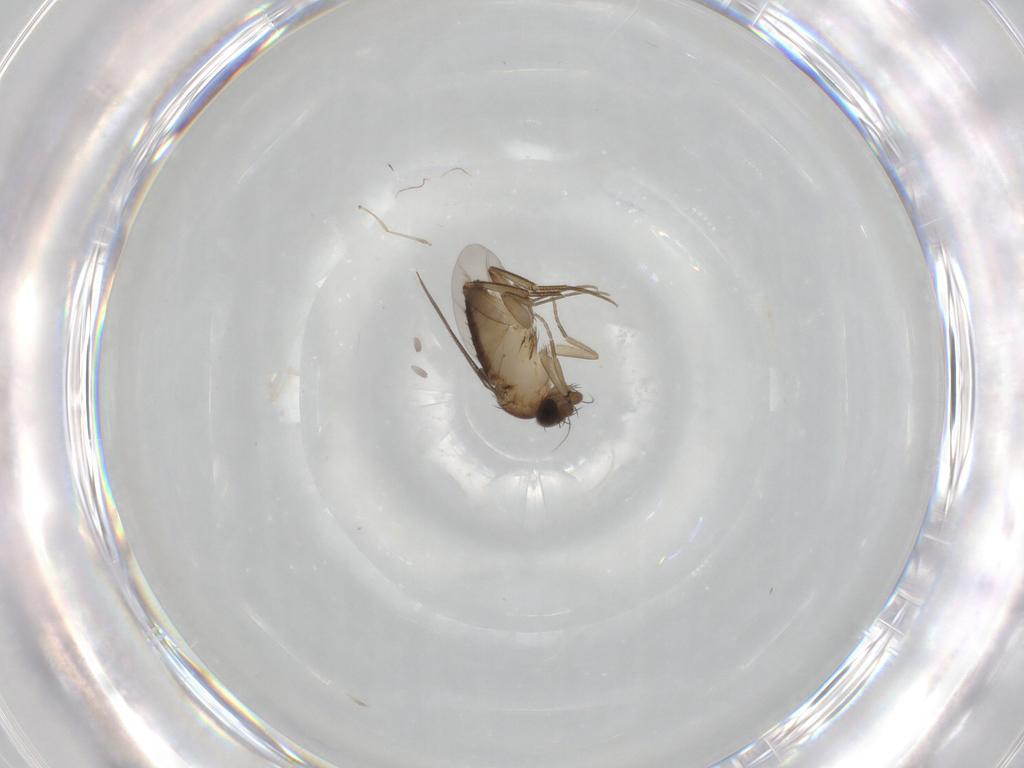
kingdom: Animalia
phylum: Arthropoda
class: Insecta
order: Diptera
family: Phoridae
